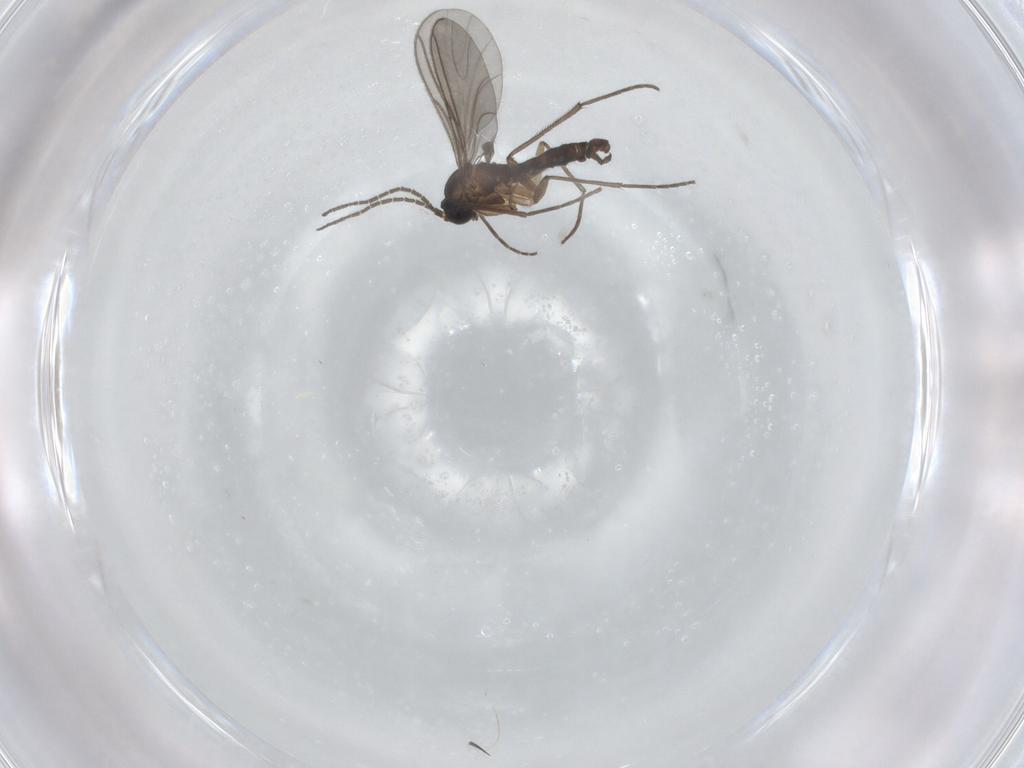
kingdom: Animalia
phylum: Arthropoda
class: Insecta
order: Diptera
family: Sciaridae
